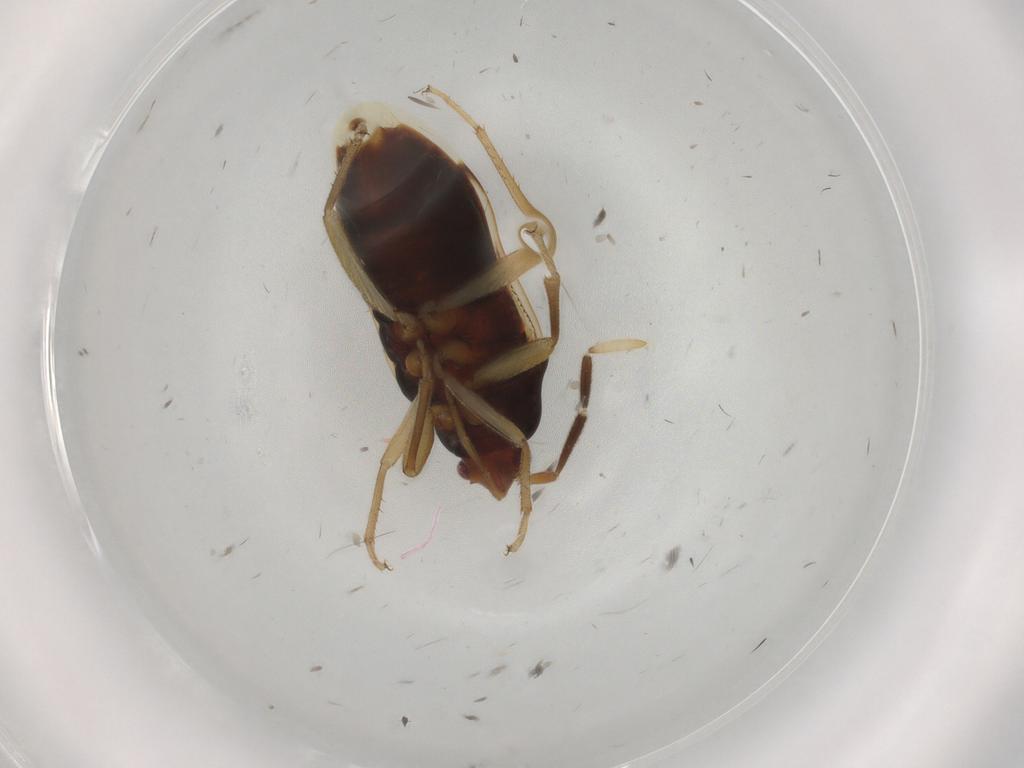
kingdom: Animalia
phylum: Arthropoda
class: Insecta
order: Hemiptera
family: Rhyparochromidae
